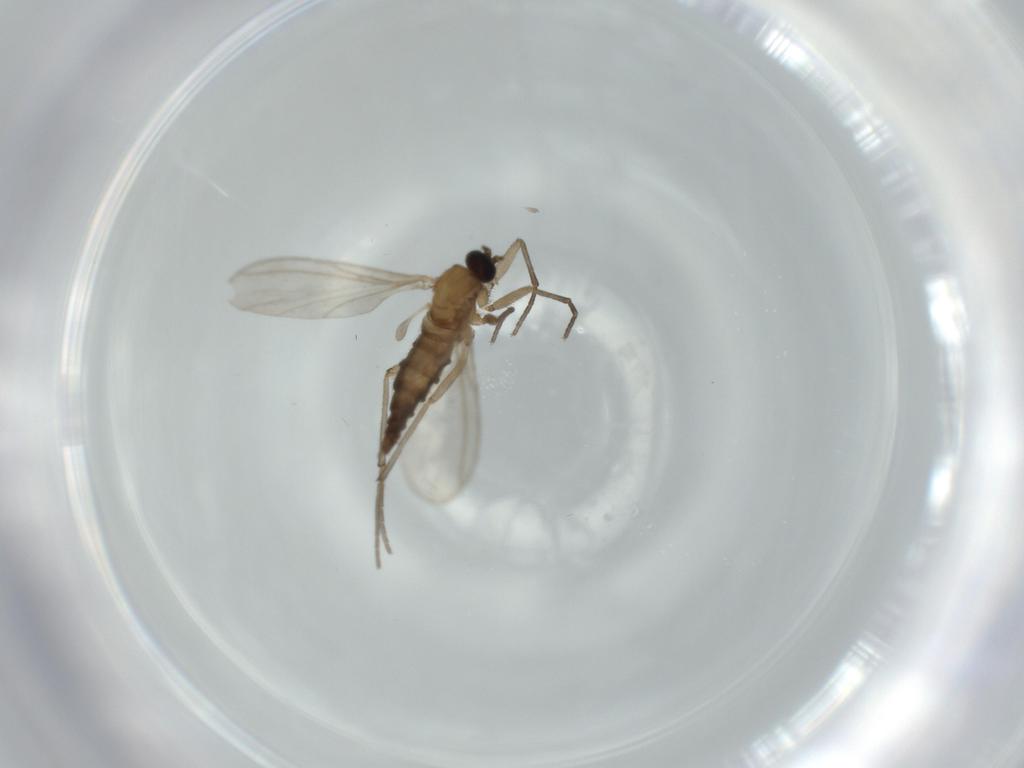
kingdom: Animalia
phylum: Arthropoda
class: Insecta
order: Diptera
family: Sciaridae
